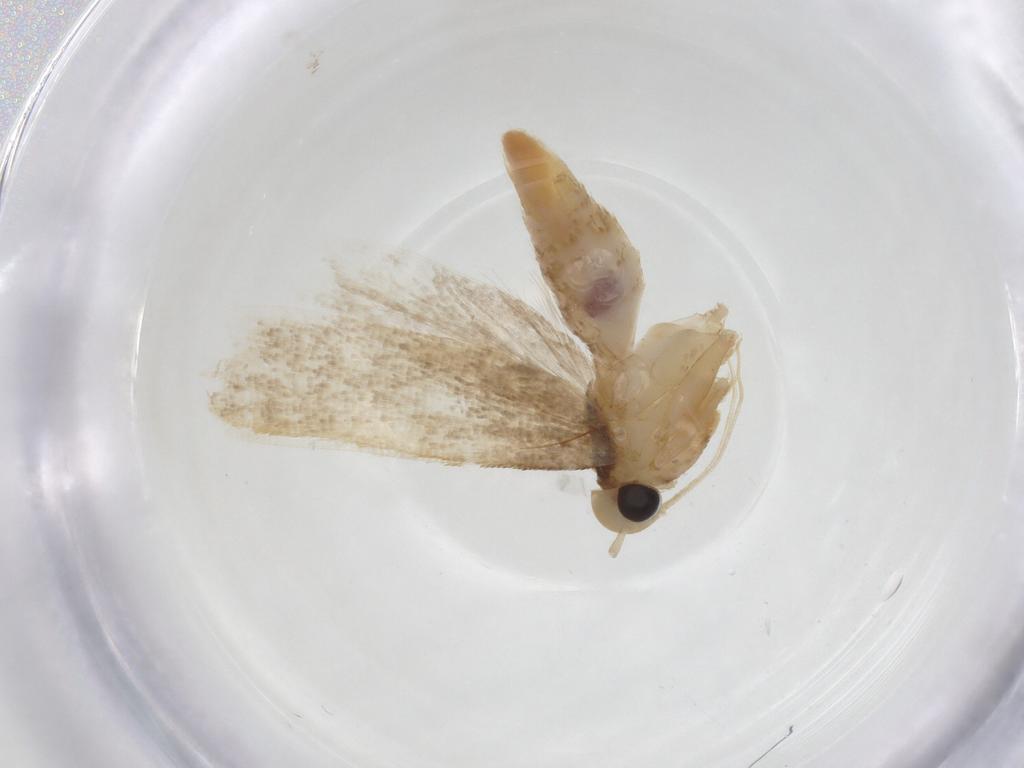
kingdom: Animalia
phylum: Arthropoda
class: Insecta
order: Lepidoptera
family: Gelechiidae
